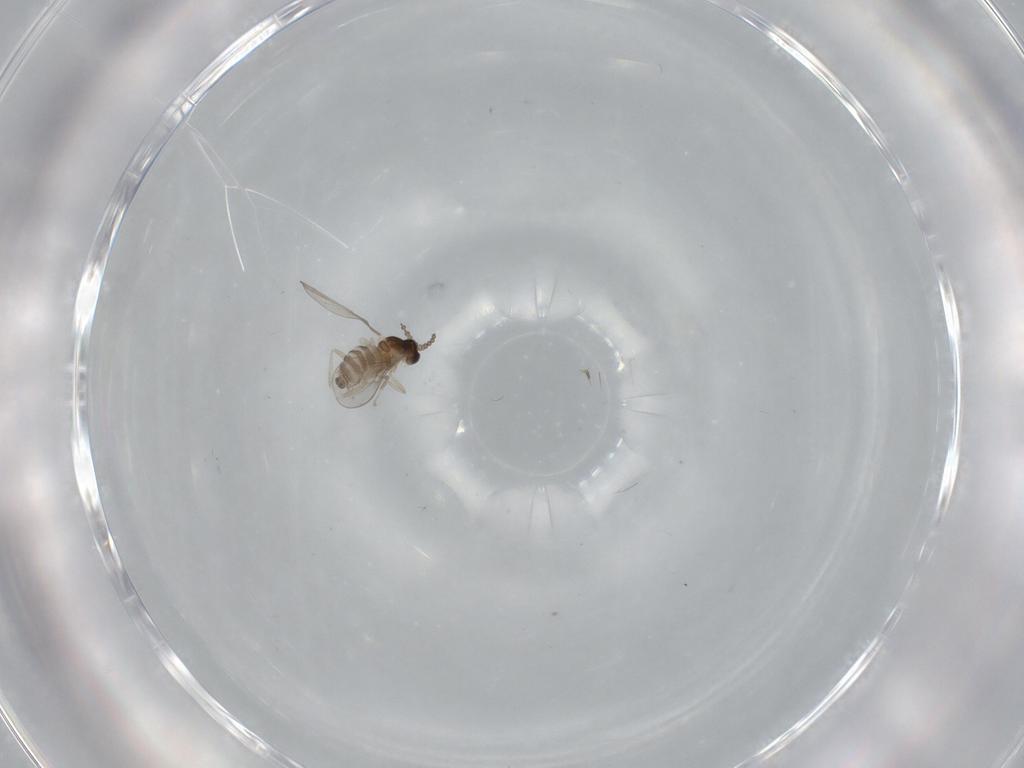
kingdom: Animalia
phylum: Arthropoda
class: Insecta
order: Diptera
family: Cecidomyiidae
